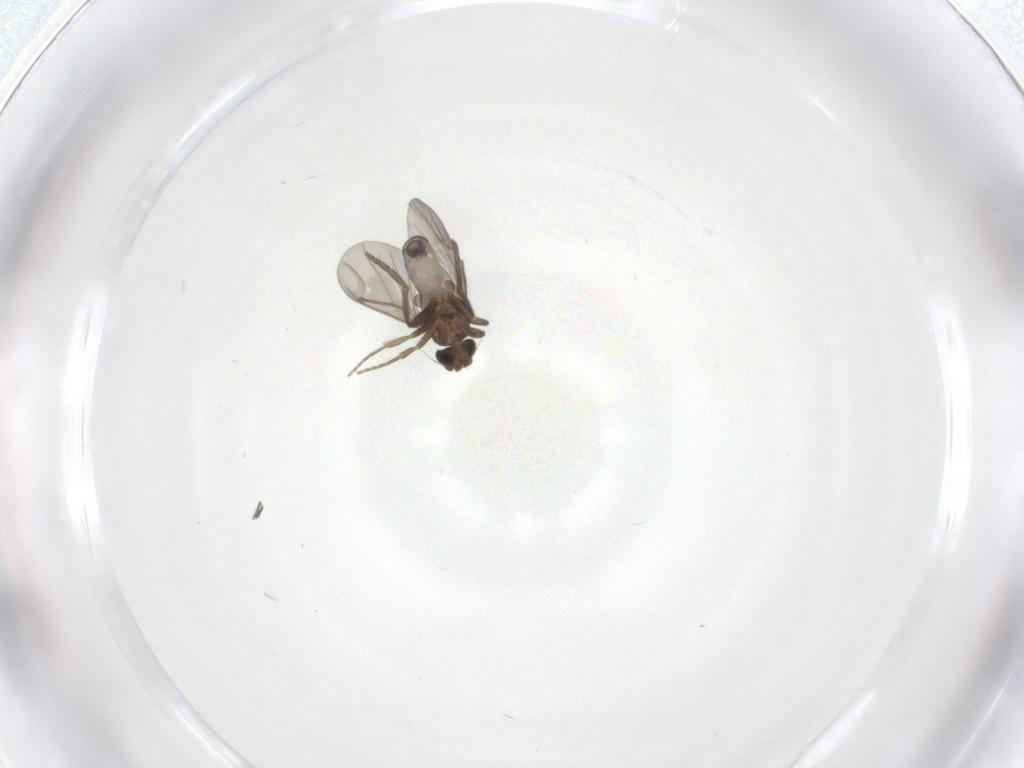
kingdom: Animalia
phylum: Arthropoda
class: Insecta
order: Diptera
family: Cecidomyiidae
